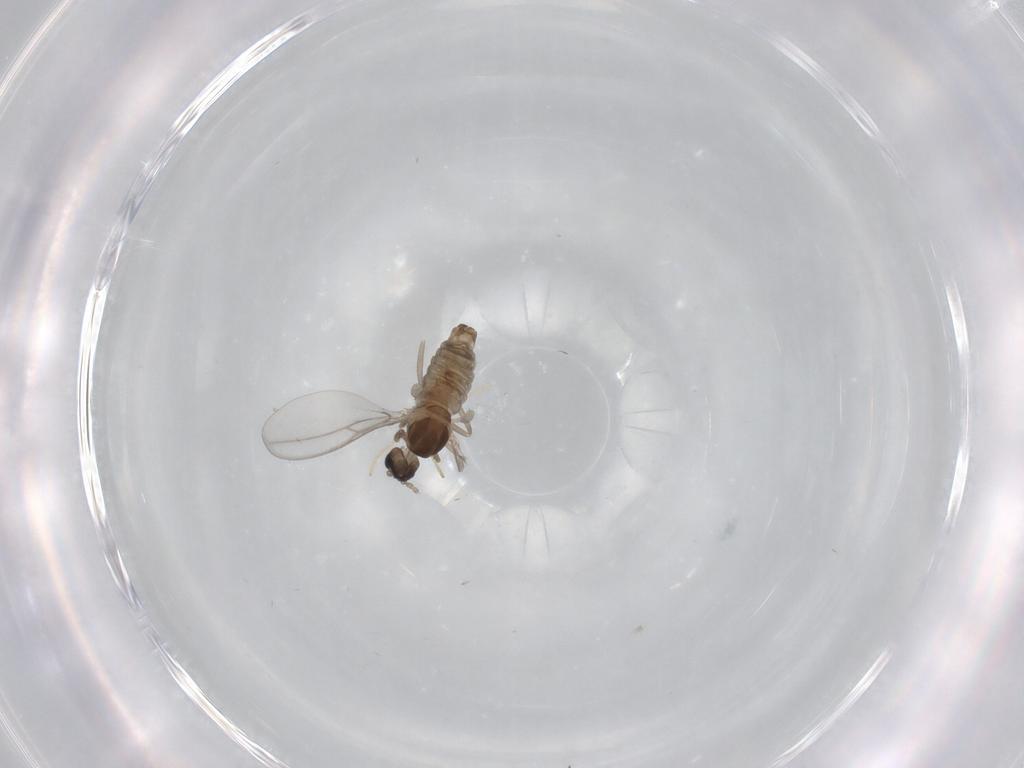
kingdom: Animalia
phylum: Arthropoda
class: Insecta
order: Diptera
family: Cecidomyiidae
